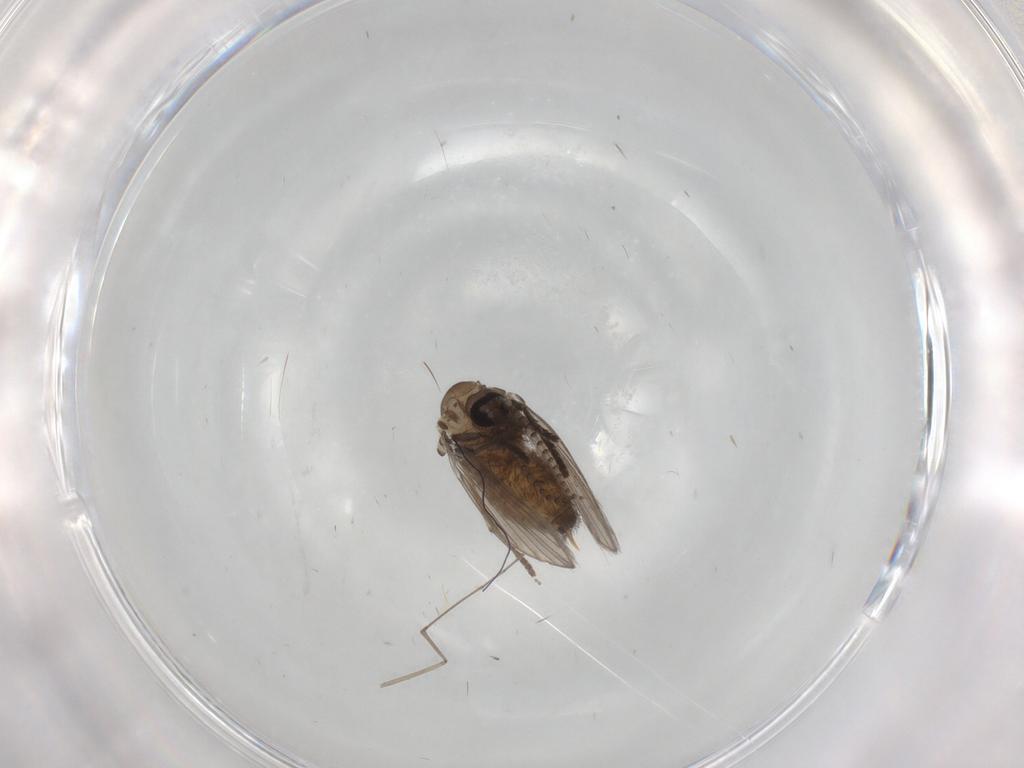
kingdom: Animalia
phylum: Arthropoda
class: Insecta
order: Diptera
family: Psychodidae
